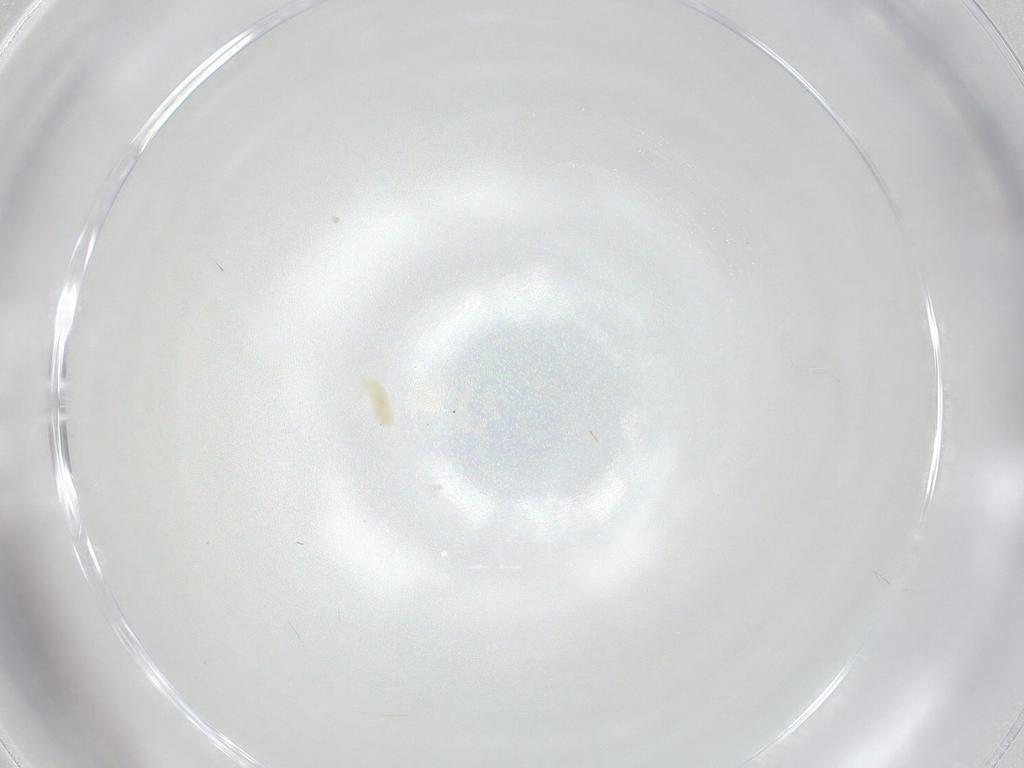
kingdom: Animalia
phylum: Arthropoda
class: Arachnida
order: Trombidiformes
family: Eupodidae
